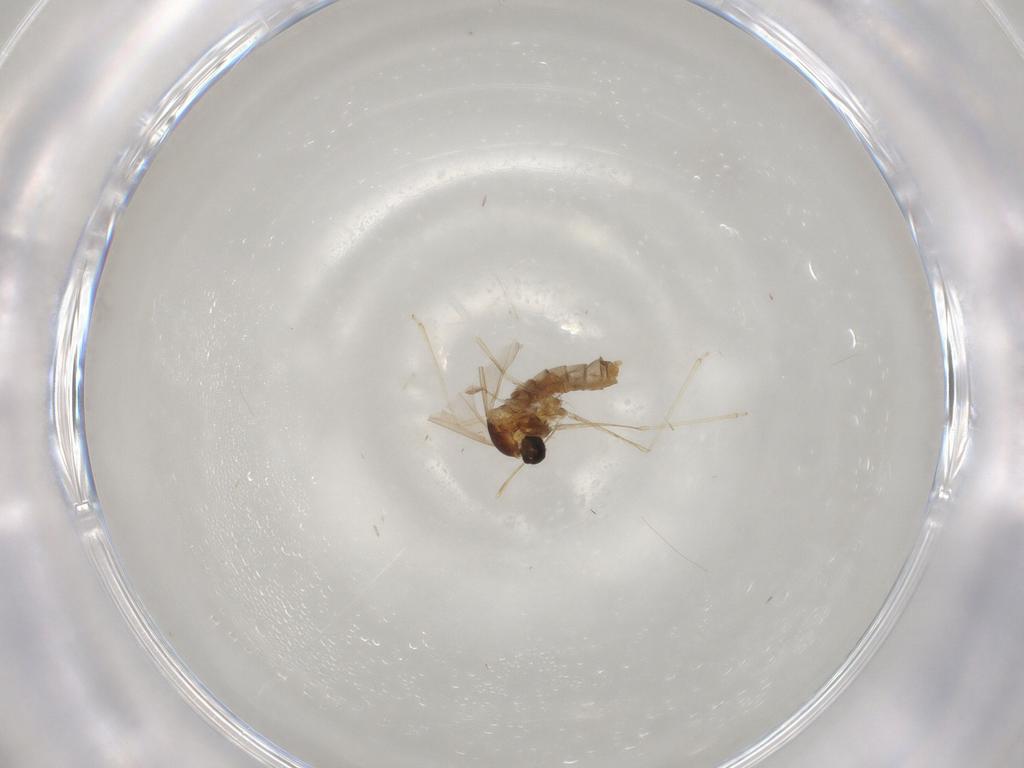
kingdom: Animalia
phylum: Arthropoda
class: Insecta
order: Diptera
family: Cecidomyiidae
